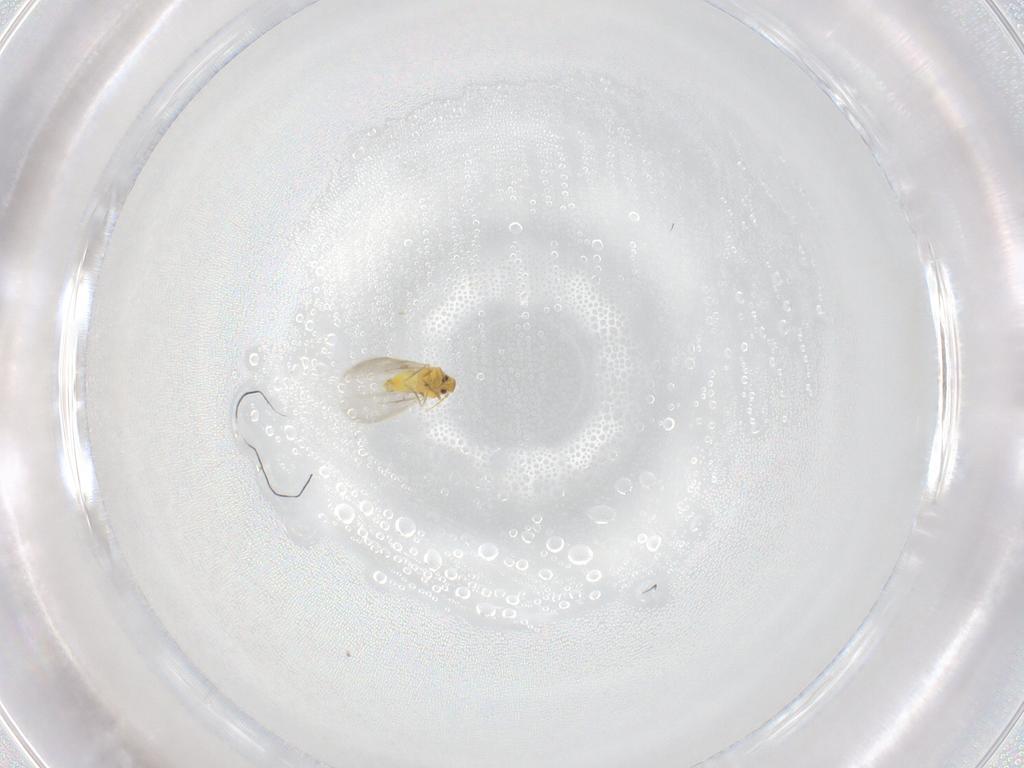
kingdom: Animalia
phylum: Arthropoda
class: Insecta
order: Hemiptera
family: Aleyrodidae
